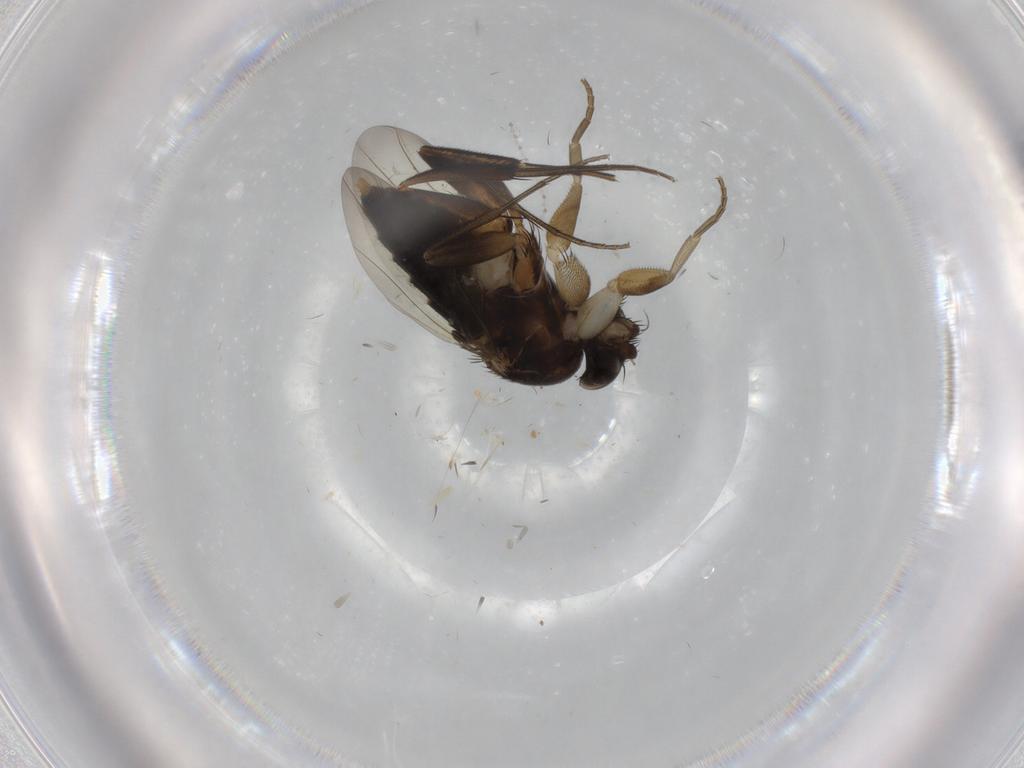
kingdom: Animalia
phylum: Arthropoda
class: Insecta
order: Diptera
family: Phoridae
